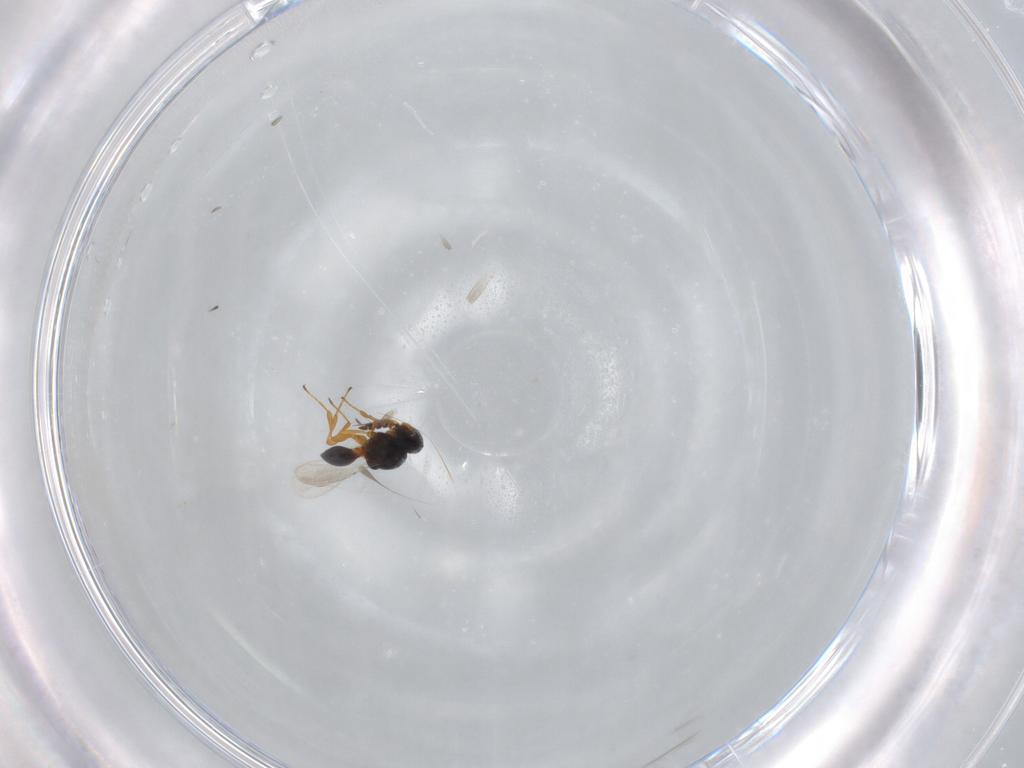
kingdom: Animalia
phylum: Arthropoda
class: Insecta
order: Hymenoptera
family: Platygastridae
